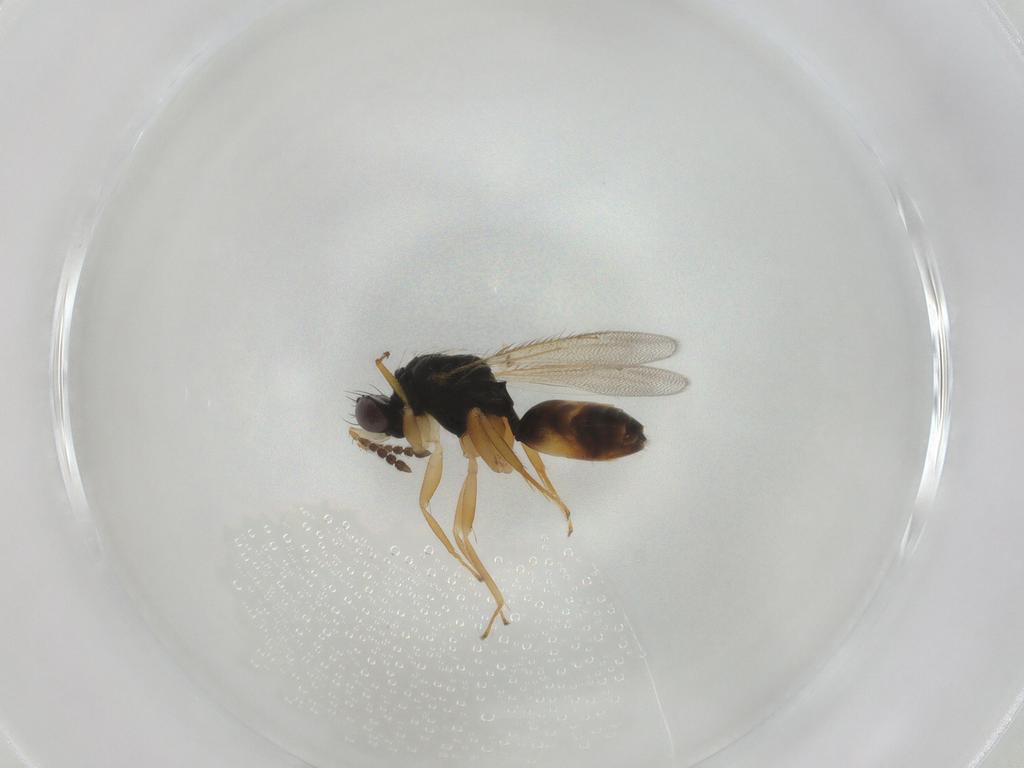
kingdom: Animalia
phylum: Arthropoda
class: Insecta
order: Hymenoptera
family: Eulophidae
